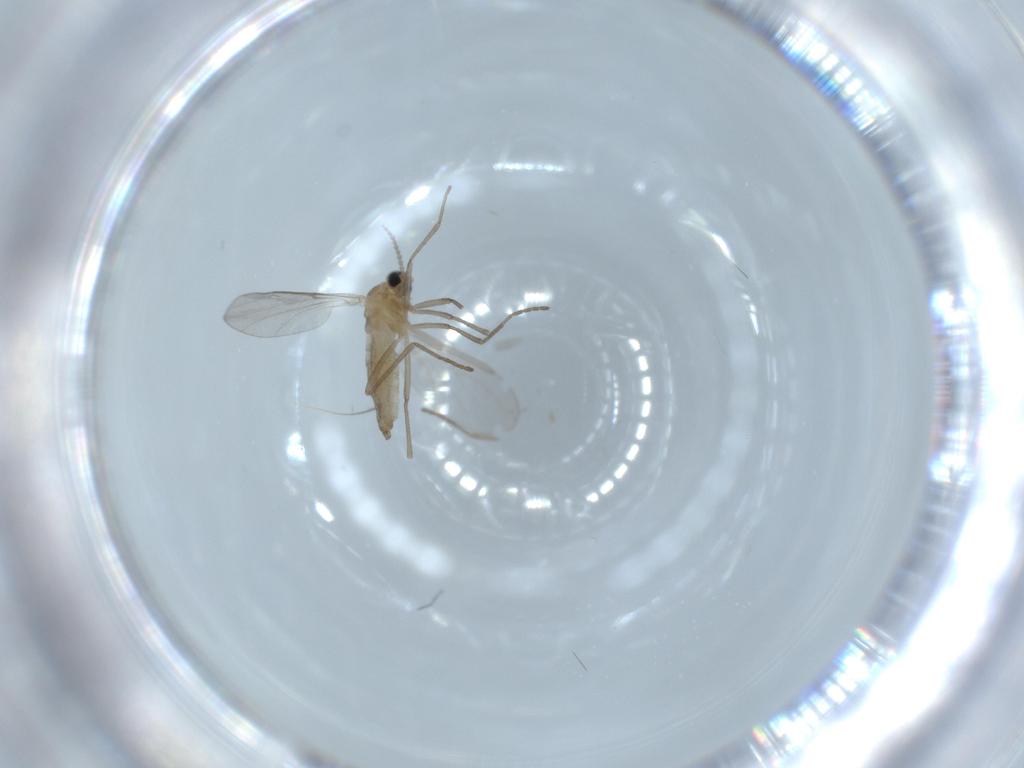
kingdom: Animalia
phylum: Arthropoda
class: Insecta
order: Diptera
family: Cecidomyiidae
